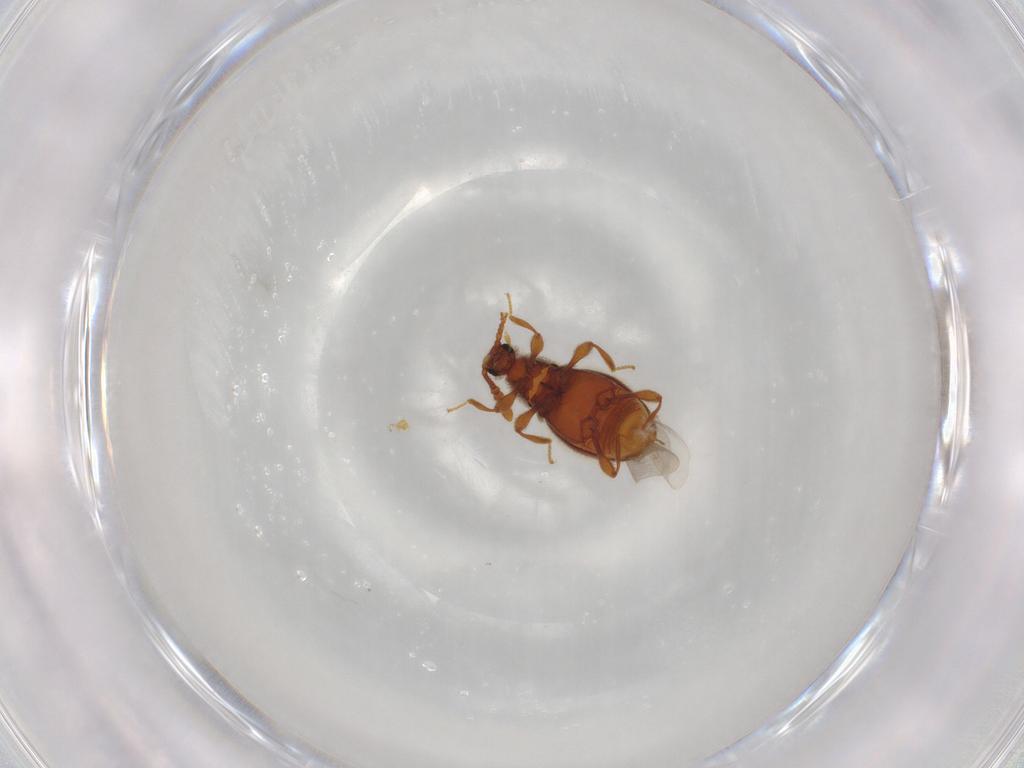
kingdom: Animalia
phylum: Arthropoda
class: Insecta
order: Coleoptera
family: Staphylinidae
